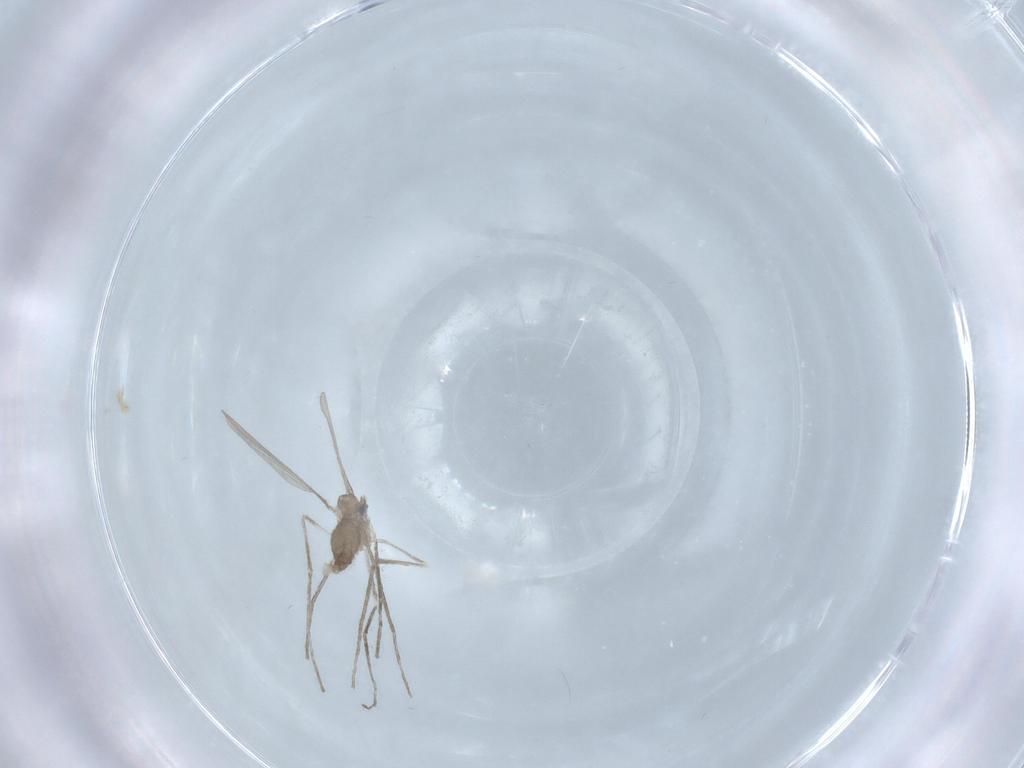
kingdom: Animalia
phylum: Arthropoda
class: Insecta
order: Diptera
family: Cecidomyiidae
